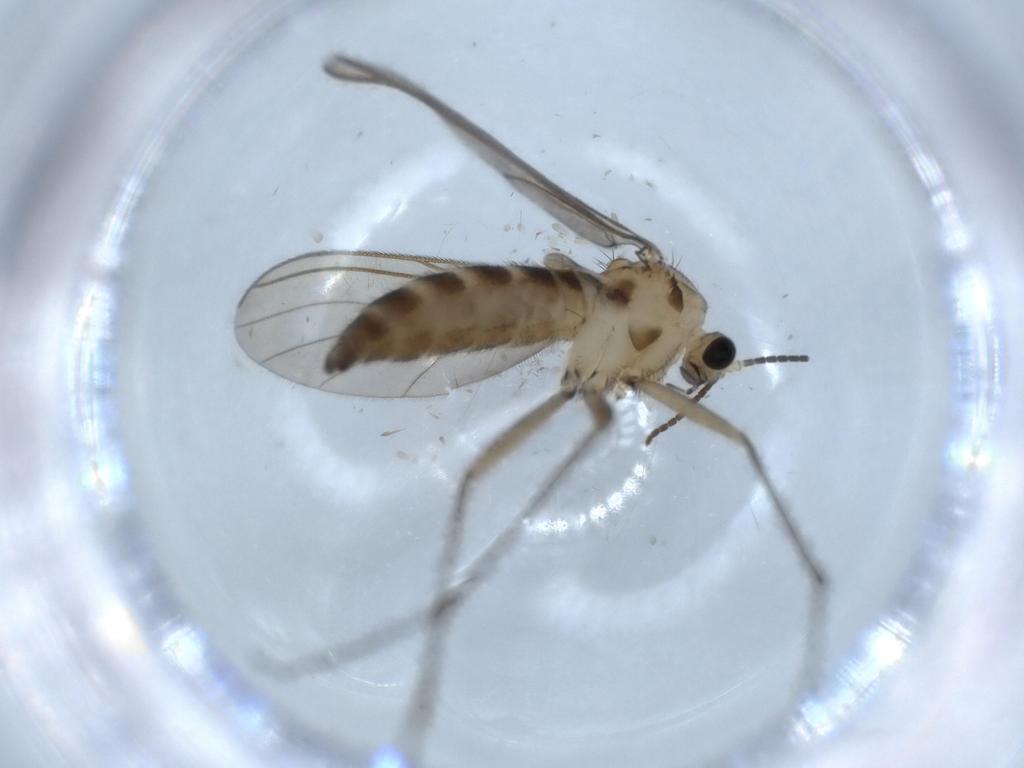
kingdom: Animalia
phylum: Arthropoda
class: Insecta
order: Diptera
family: Sciaridae
